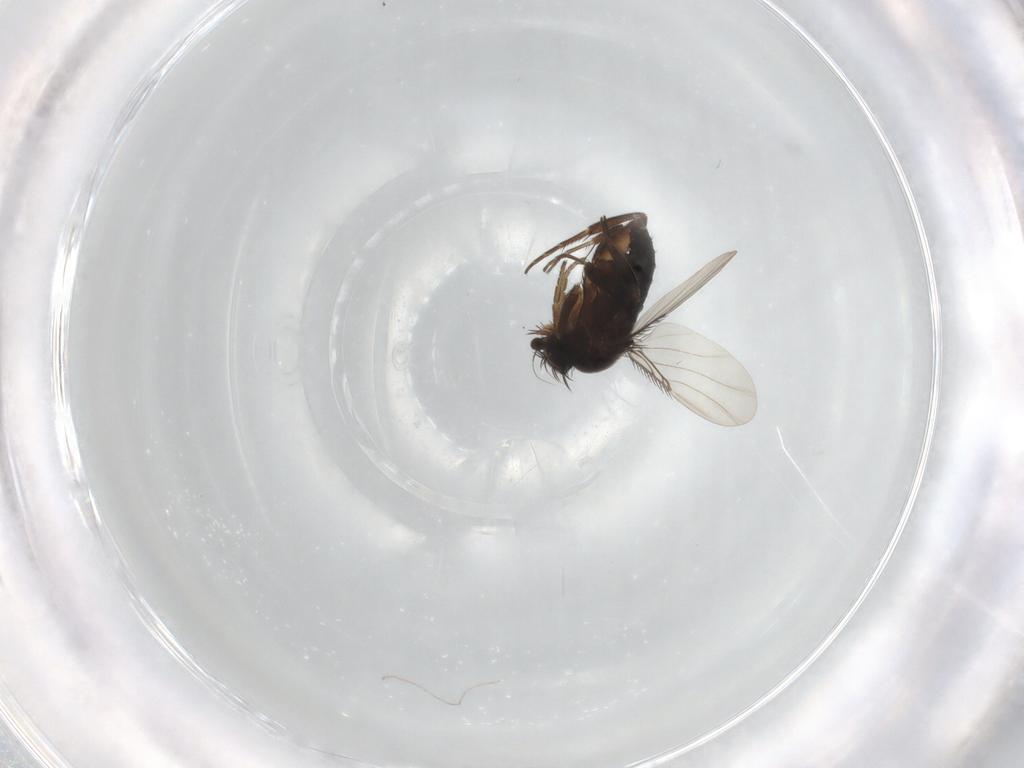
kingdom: Animalia
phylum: Arthropoda
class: Insecta
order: Diptera
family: Phoridae
